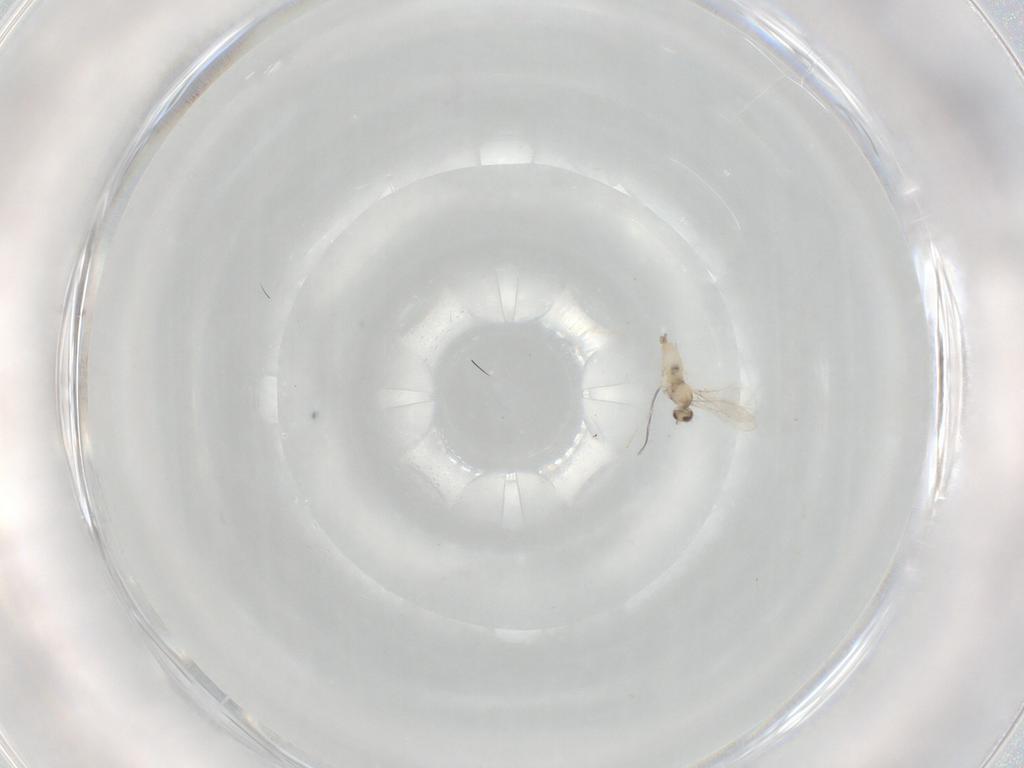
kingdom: Animalia
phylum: Arthropoda
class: Insecta
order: Diptera
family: Cecidomyiidae
